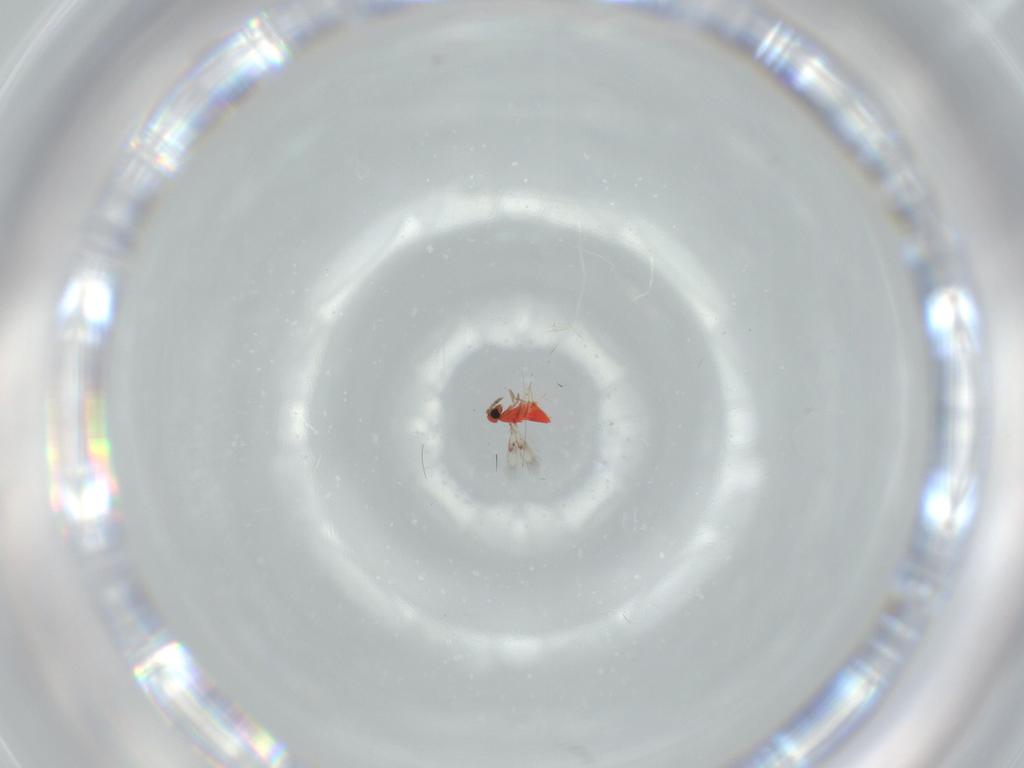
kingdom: Animalia
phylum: Arthropoda
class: Insecta
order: Hymenoptera
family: Trichogrammatidae
